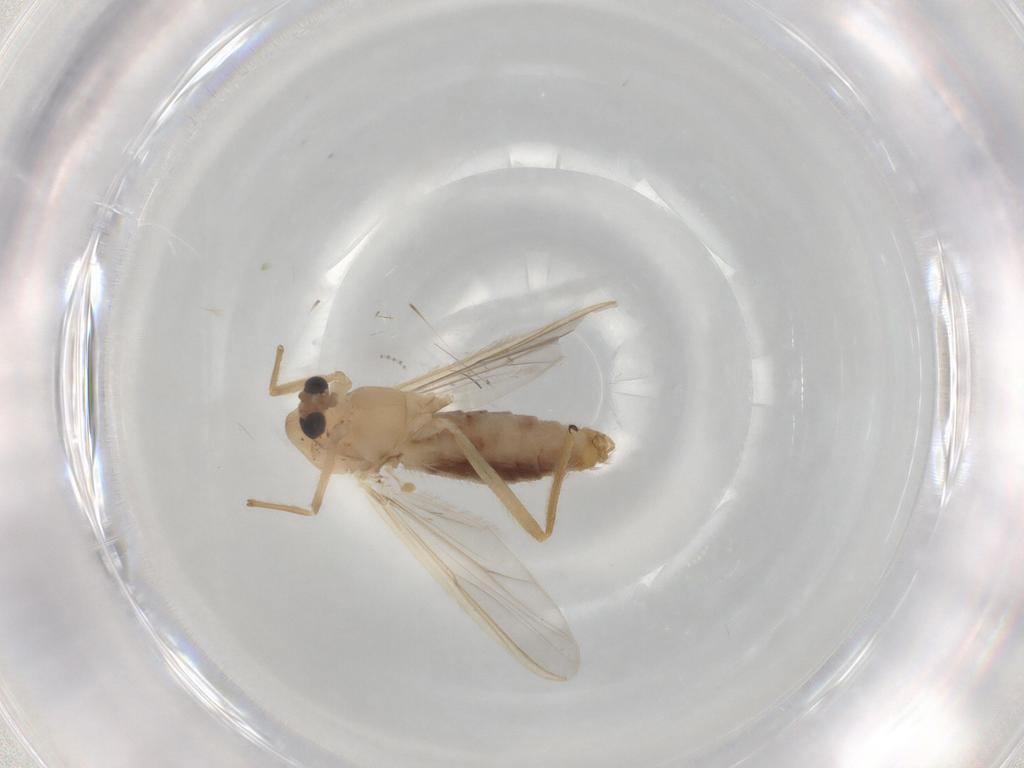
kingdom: Animalia
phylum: Arthropoda
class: Insecta
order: Diptera
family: Chironomidae
